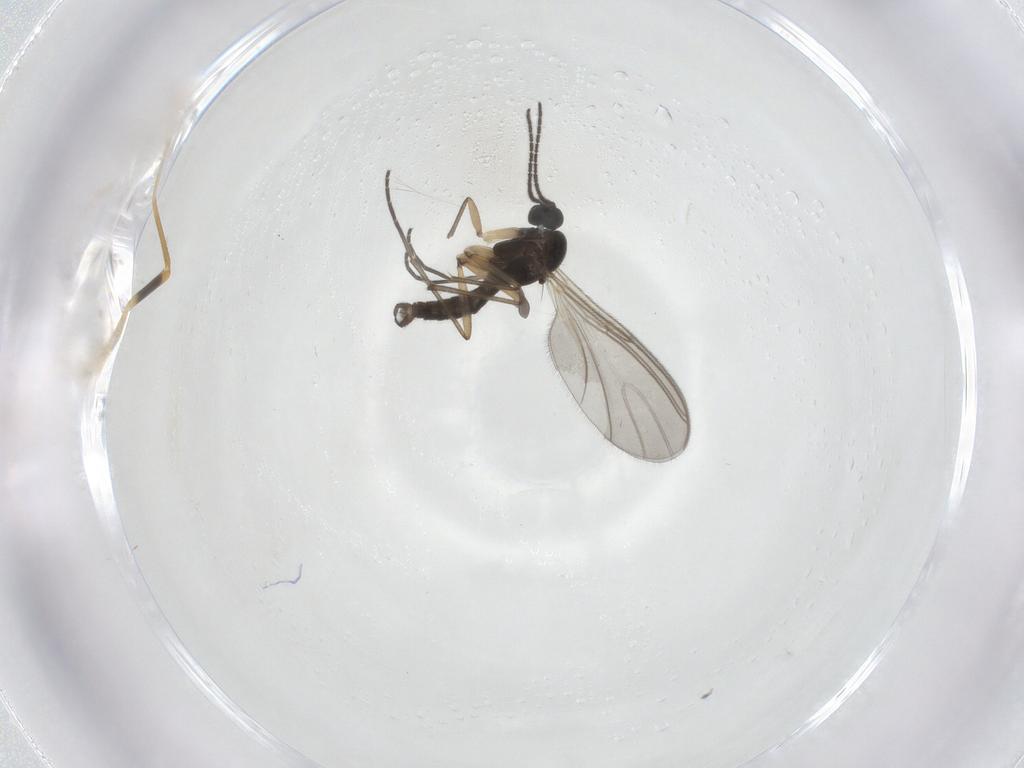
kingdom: Animalia
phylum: Arthropoda
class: Insecta
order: Diptera
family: Sciaridae
